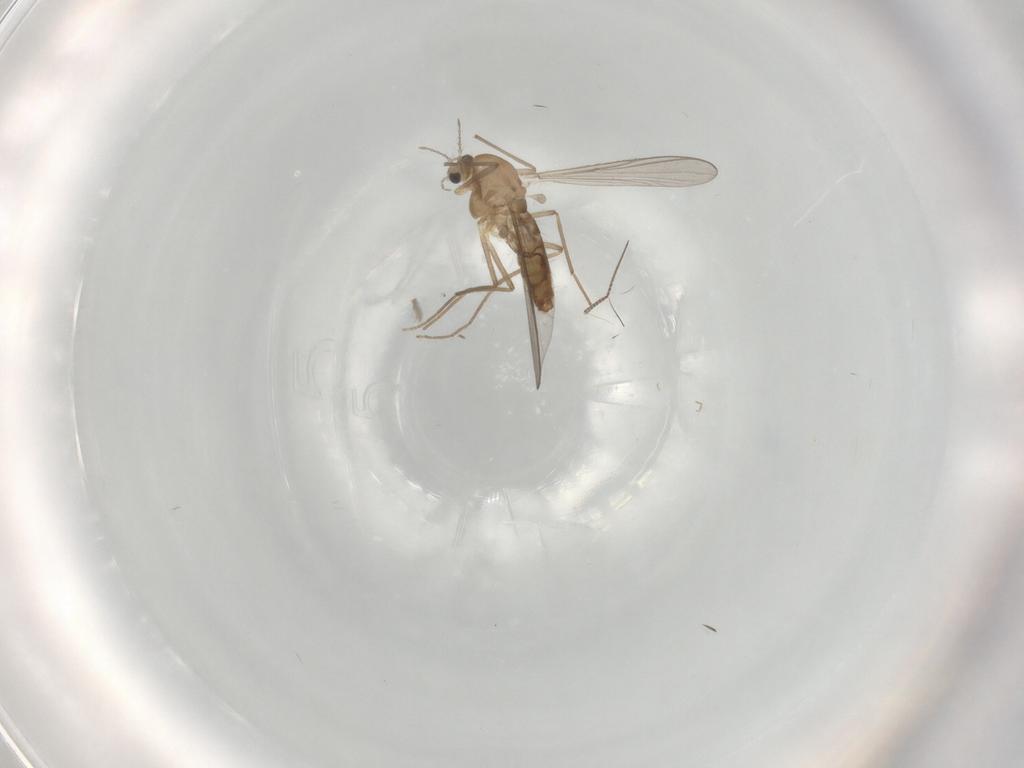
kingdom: Animalia
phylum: Arthropoda
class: Insecta
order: Diptera
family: Chironomidae
